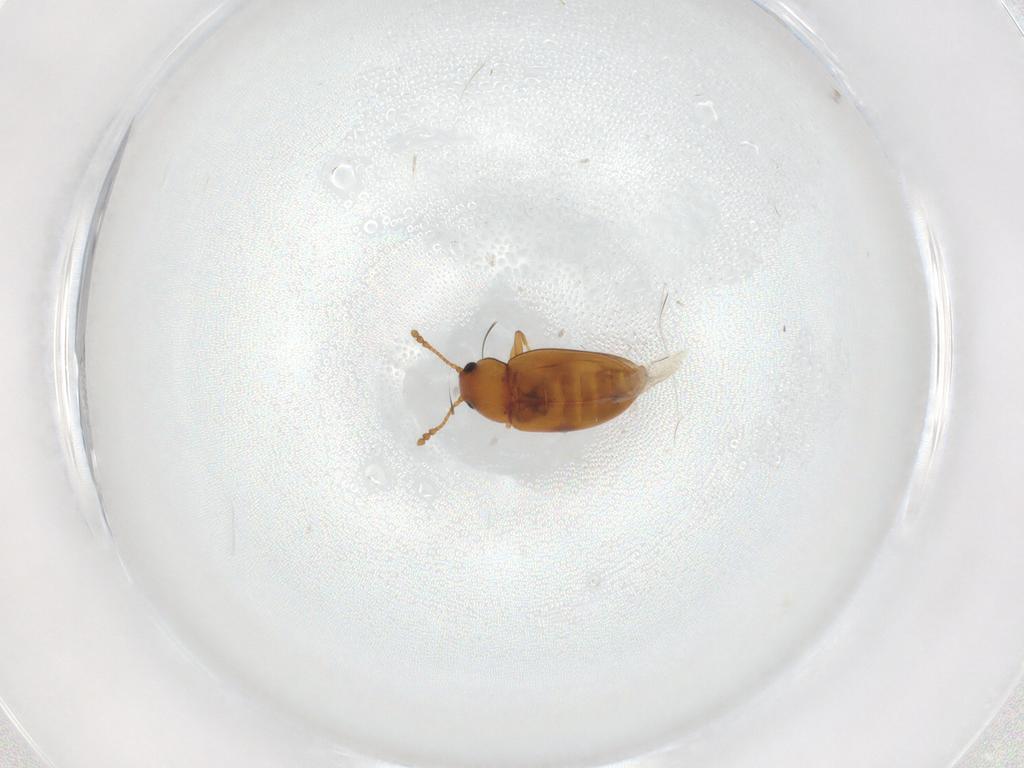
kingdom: Animalia
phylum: Arthropoda
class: Insecta
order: Coleoptera
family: Erotylidae
